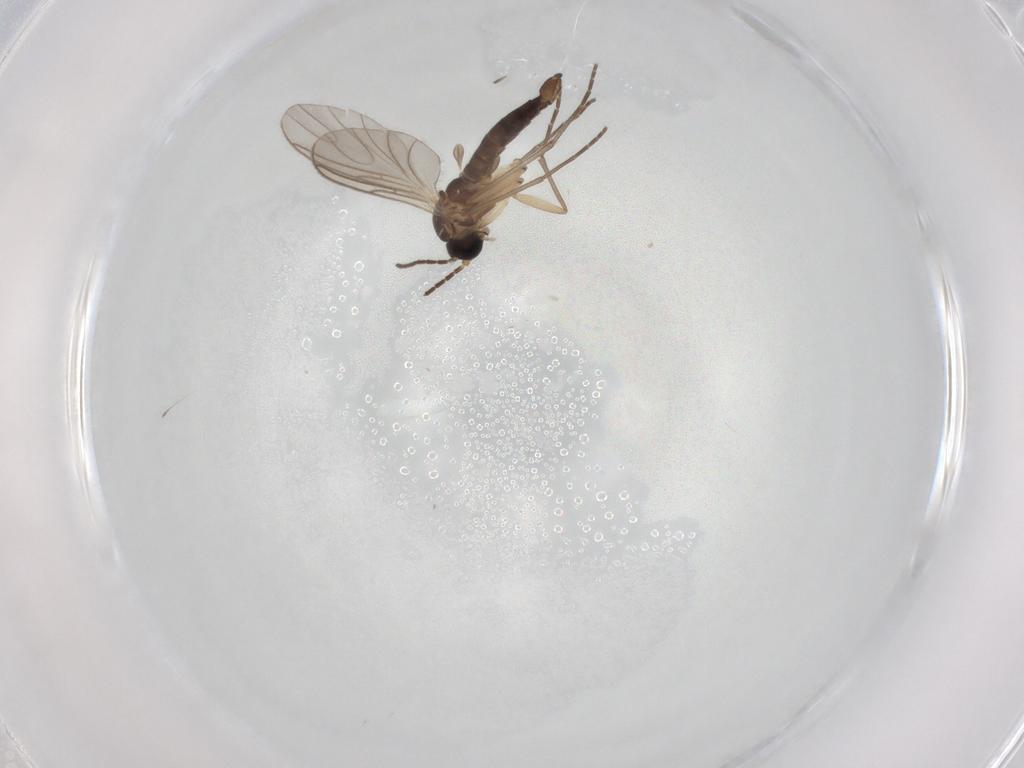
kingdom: Animalia
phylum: Arthropoda
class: Insecta
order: Diptera
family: Sciaridae
